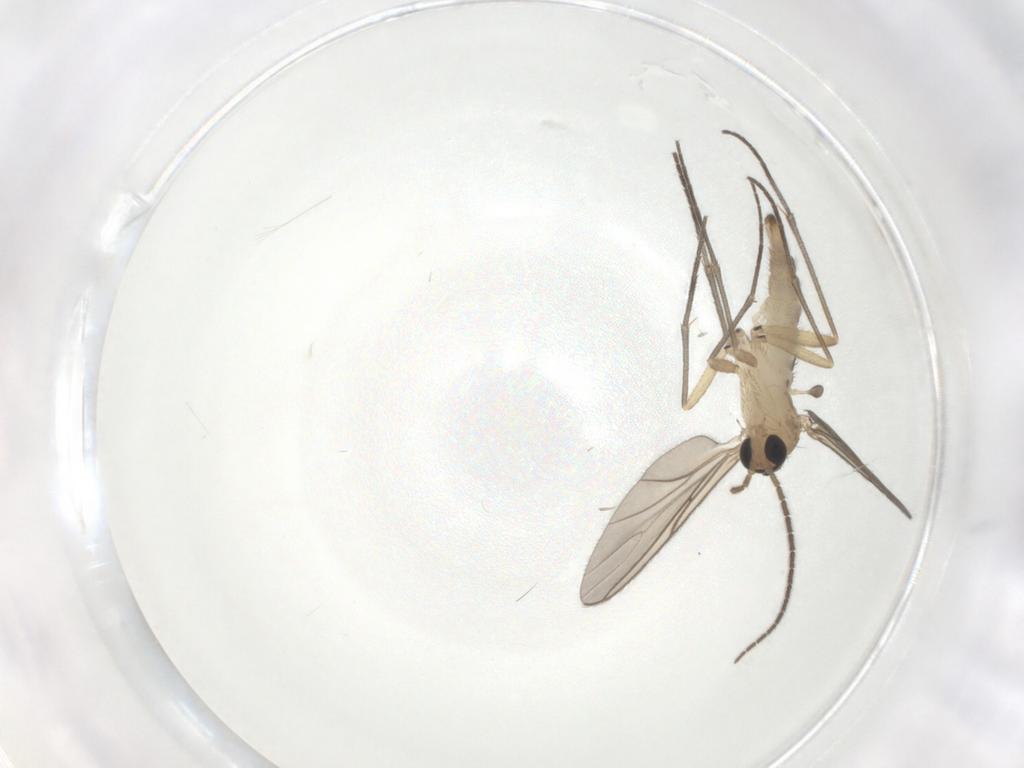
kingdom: Animalia
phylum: Arthropoda
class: Insecta
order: Diptera
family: Sciaridae
